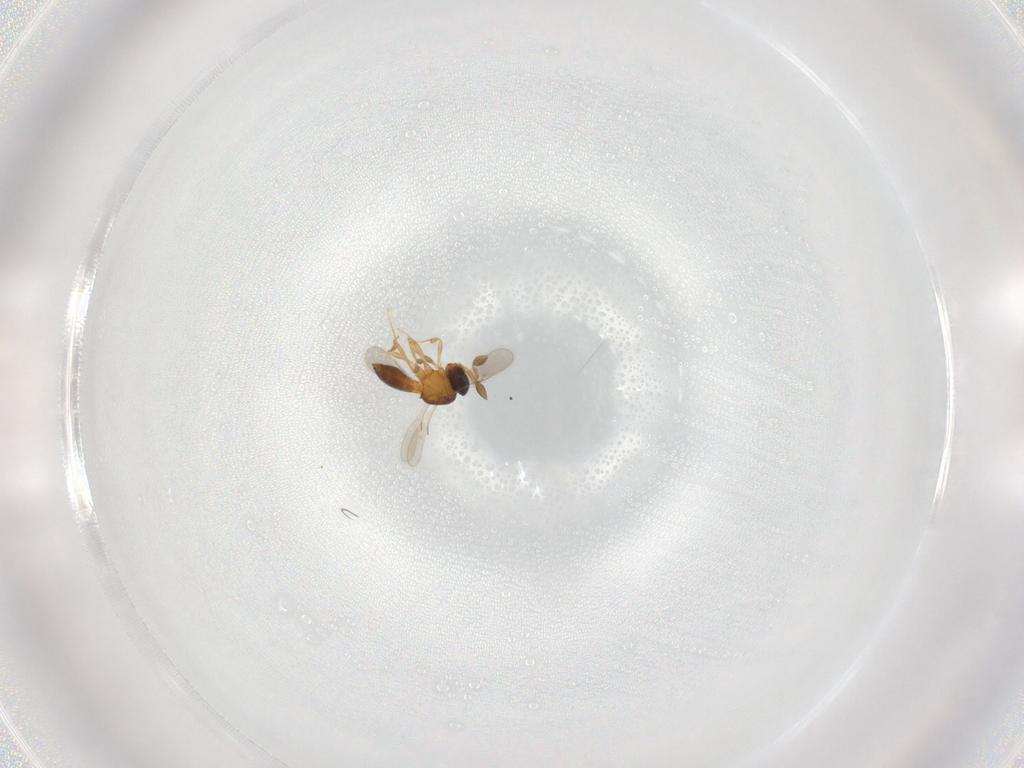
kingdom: Animalia
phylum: Arthropoda
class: Insecta
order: Hymenoptera
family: Scelionidae
